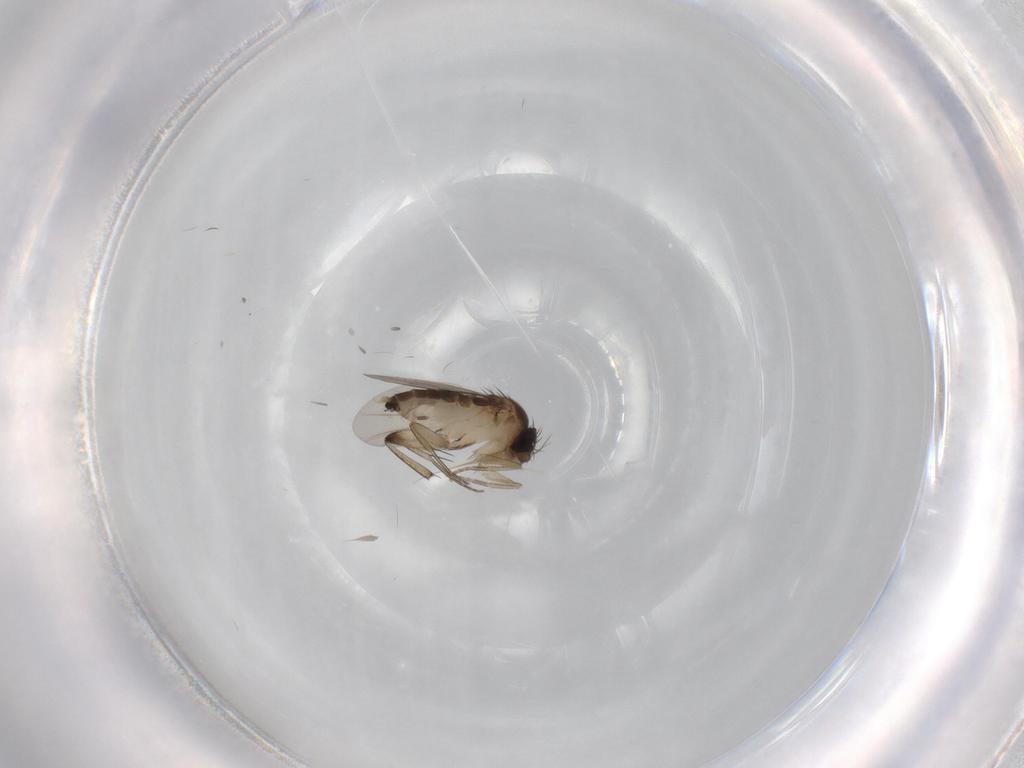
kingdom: Animalia
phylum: Arthropoda
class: Insecta
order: Diptera
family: Phoridae
